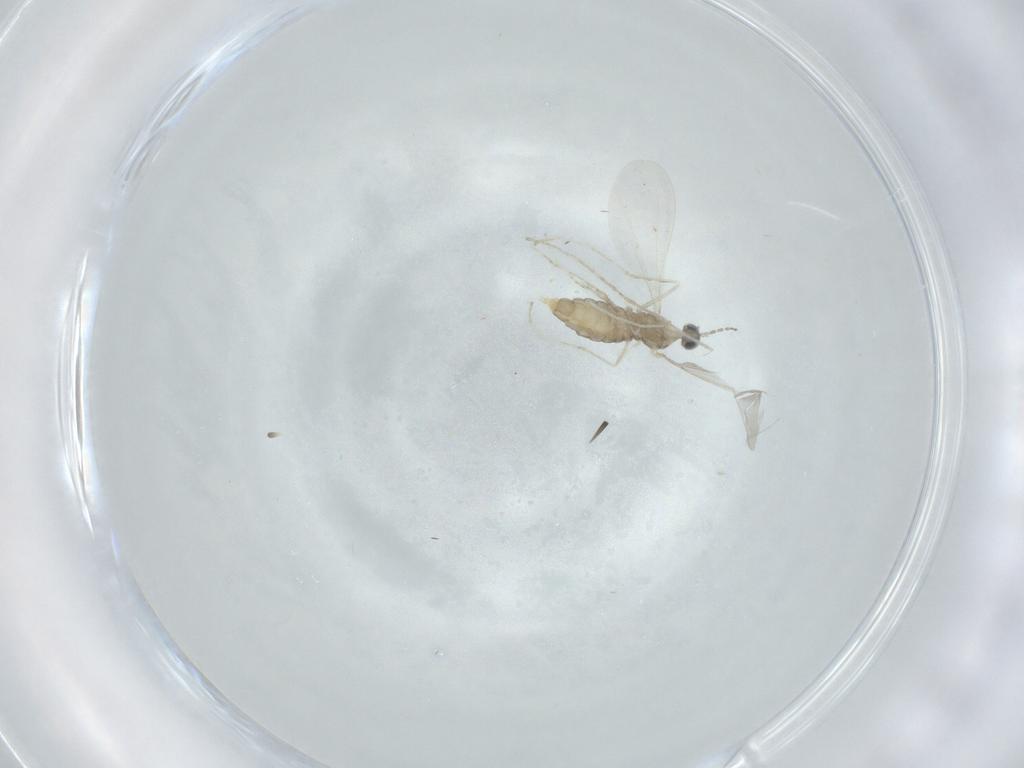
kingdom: Animalia
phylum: Arthropoda
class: Insecta
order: Diptera
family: Cecidomyiidae
